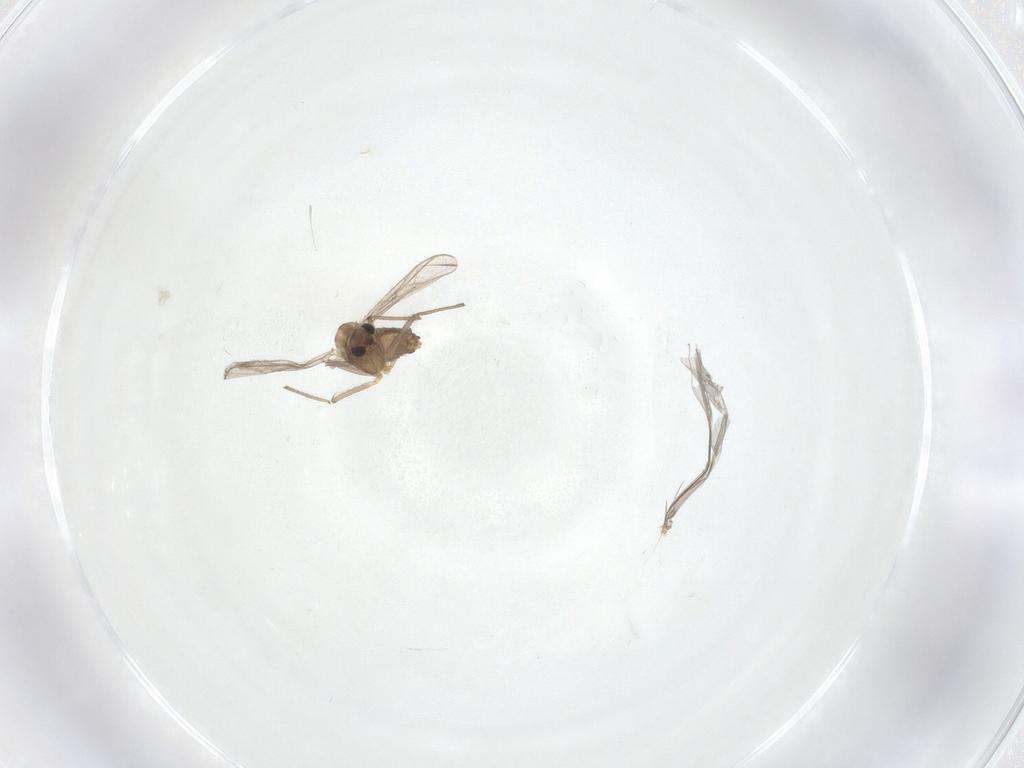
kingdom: Animalia
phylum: Arthropoda
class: Insecta
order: Diptera
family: Chironomidae
